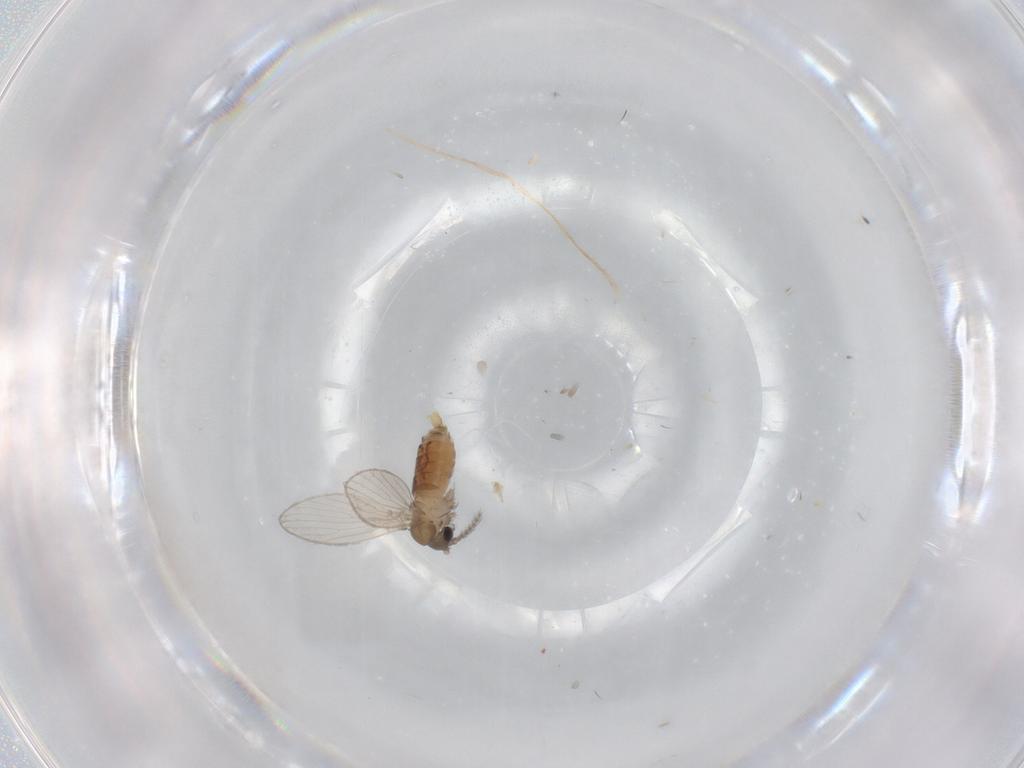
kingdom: Animalia
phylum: Arthropoda
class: Insecta
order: Diptera
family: Psychodidae
